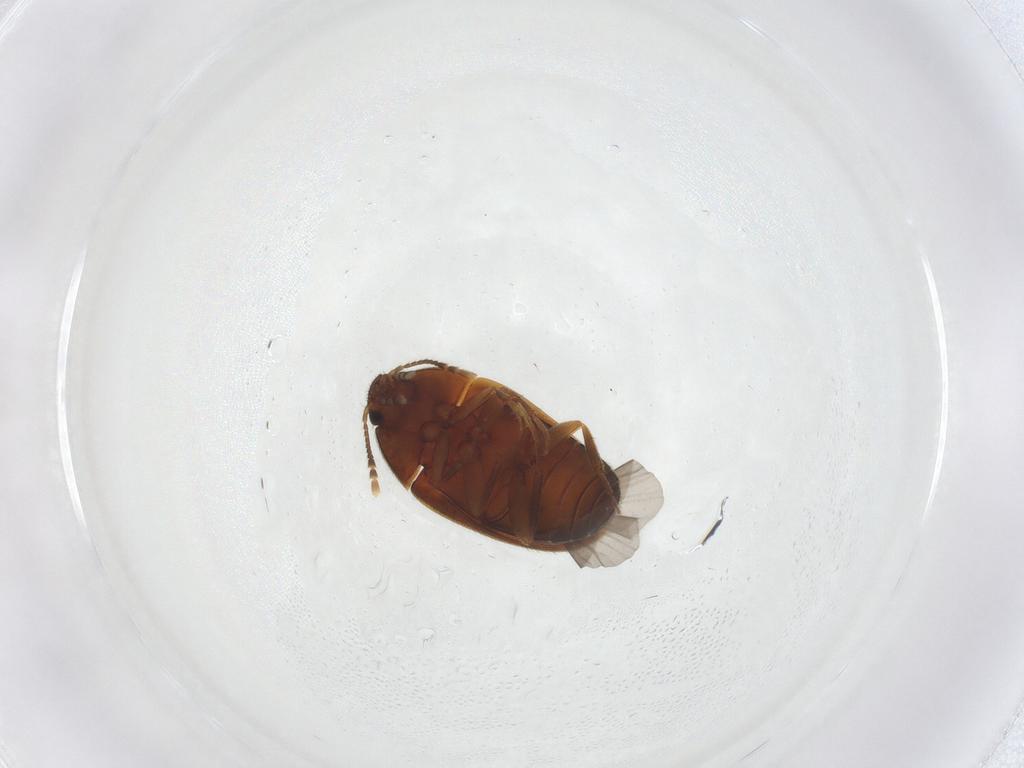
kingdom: Animalia
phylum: Arthropoda
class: Insecta
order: Coleoptera
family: Mycetophagidae
